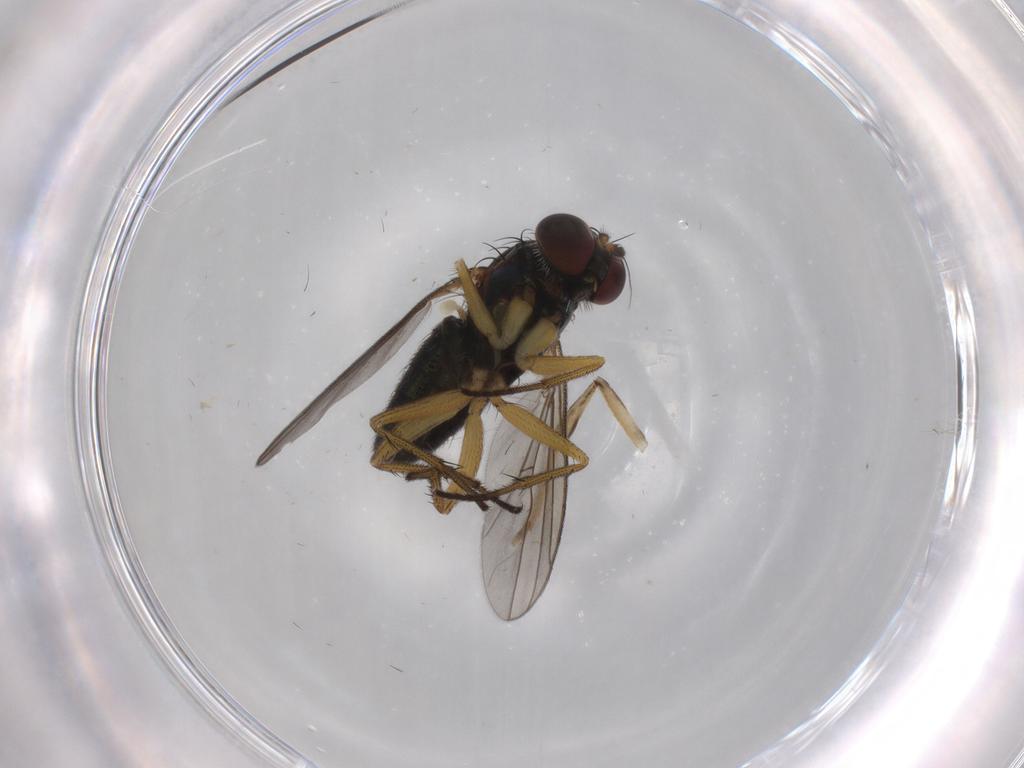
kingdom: Animalia
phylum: Arthropoda
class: Insecta
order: Diptera
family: Dolichopodidae
